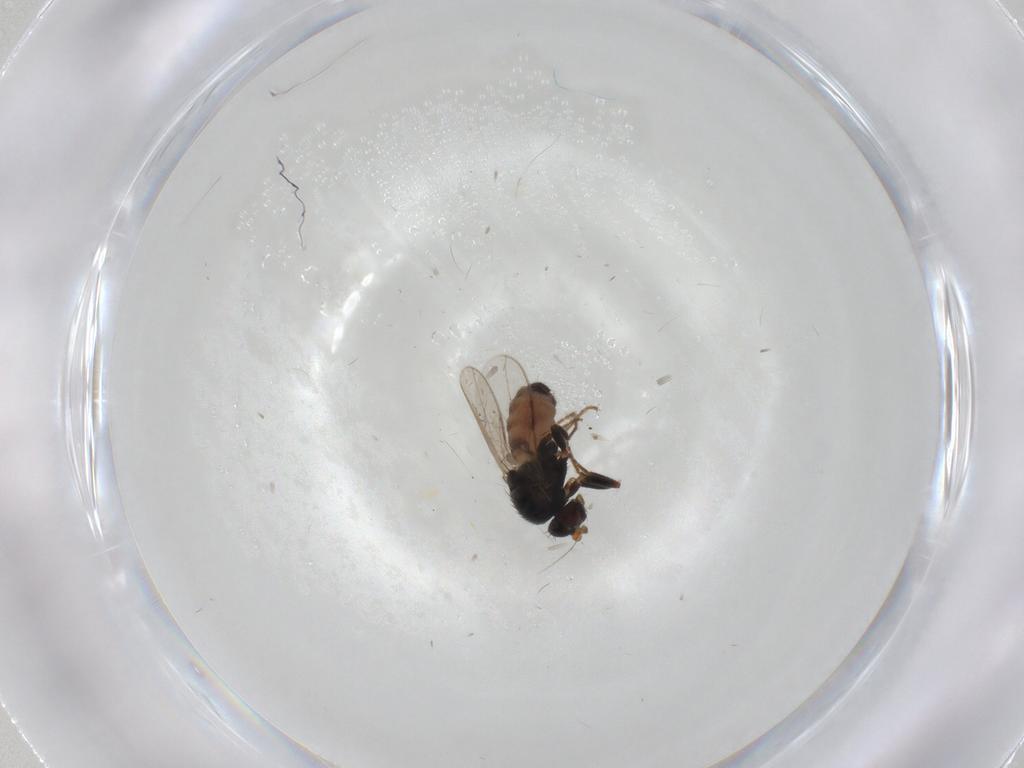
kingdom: Animalia
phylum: Arthropoda
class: Insecta
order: Diptera
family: Sphaeroceridae
